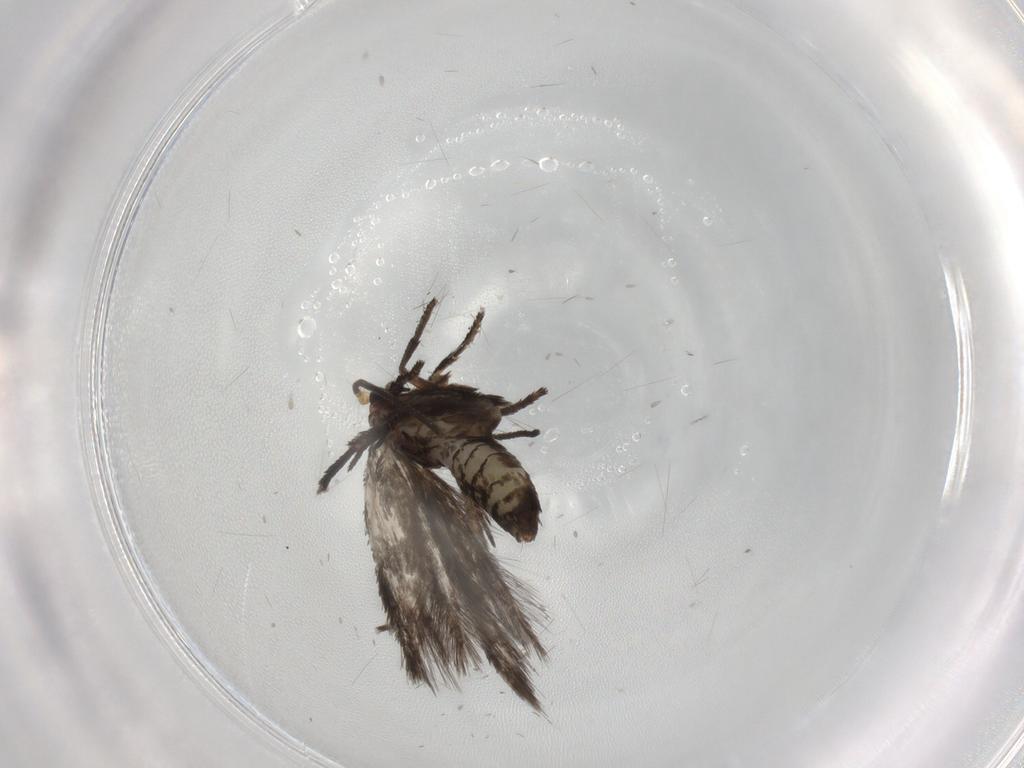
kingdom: Animalia
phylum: Arthropoda
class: Insecta
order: Lepidoptera
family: Nepticulidae
